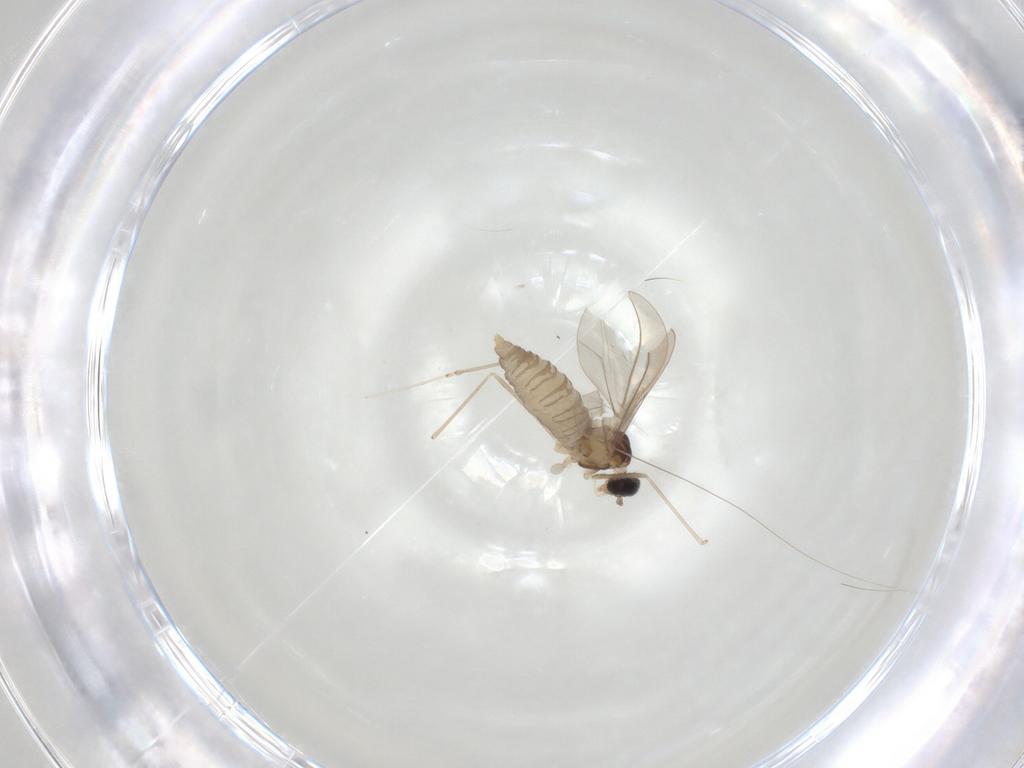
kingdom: Animalia
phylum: Arthropoda
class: Insecta
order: Diptera
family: Cecidomyiidae
